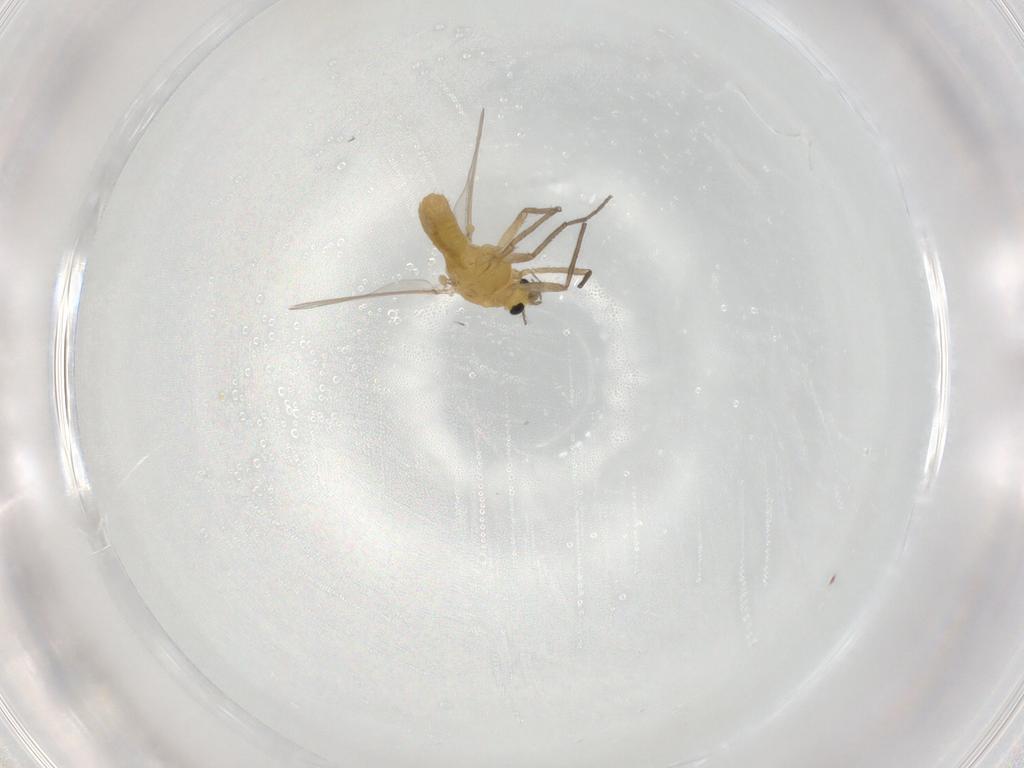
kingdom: Animalia
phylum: Arthropoda
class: Insecta
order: Diptera
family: Chironomidae
